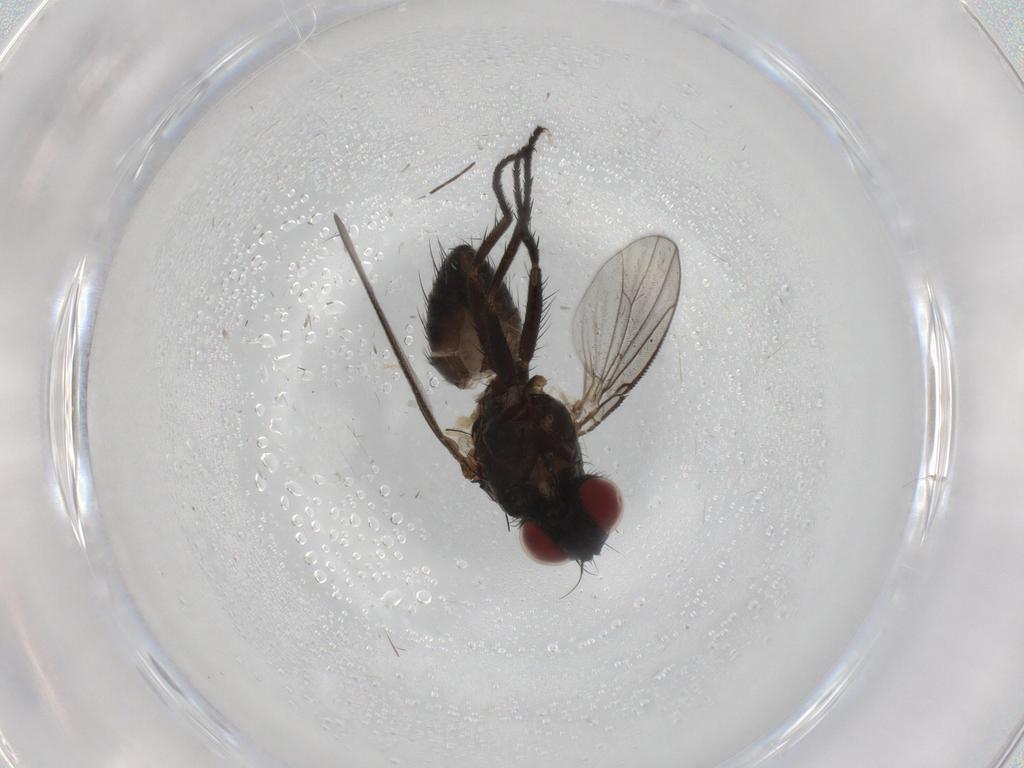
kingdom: Animalia
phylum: Arthropoda
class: Insecta
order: Diptera
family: Muscidae
